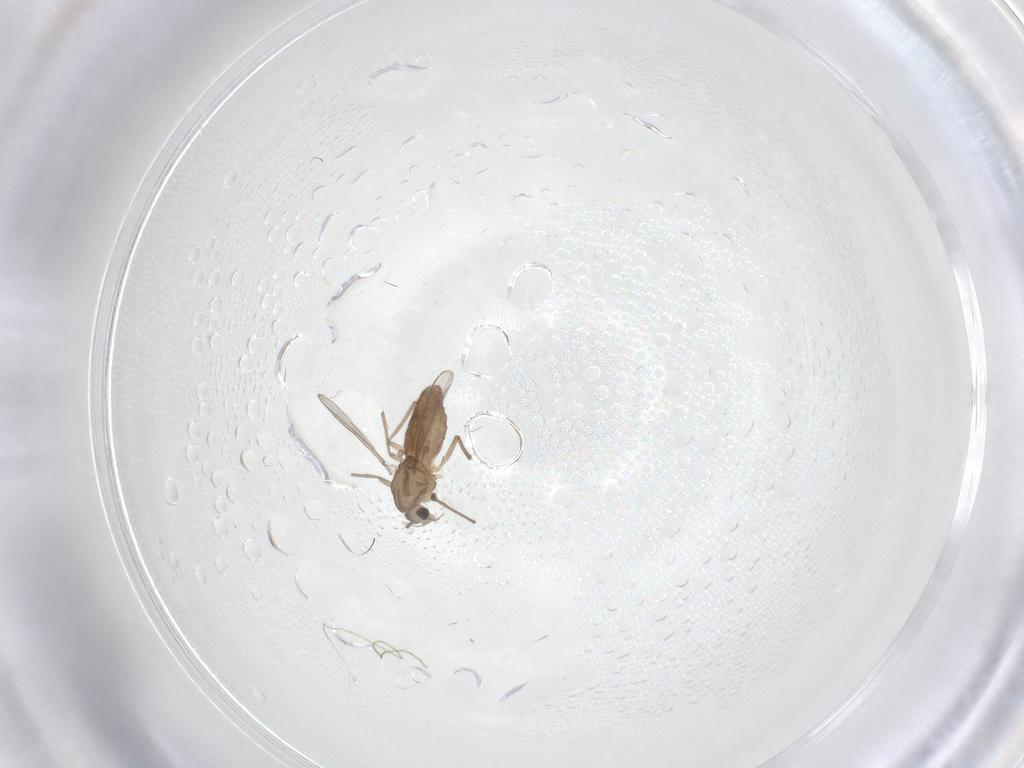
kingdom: Animalia
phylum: Arthropoda
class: Insecta
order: Diptera
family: Chironomidae
